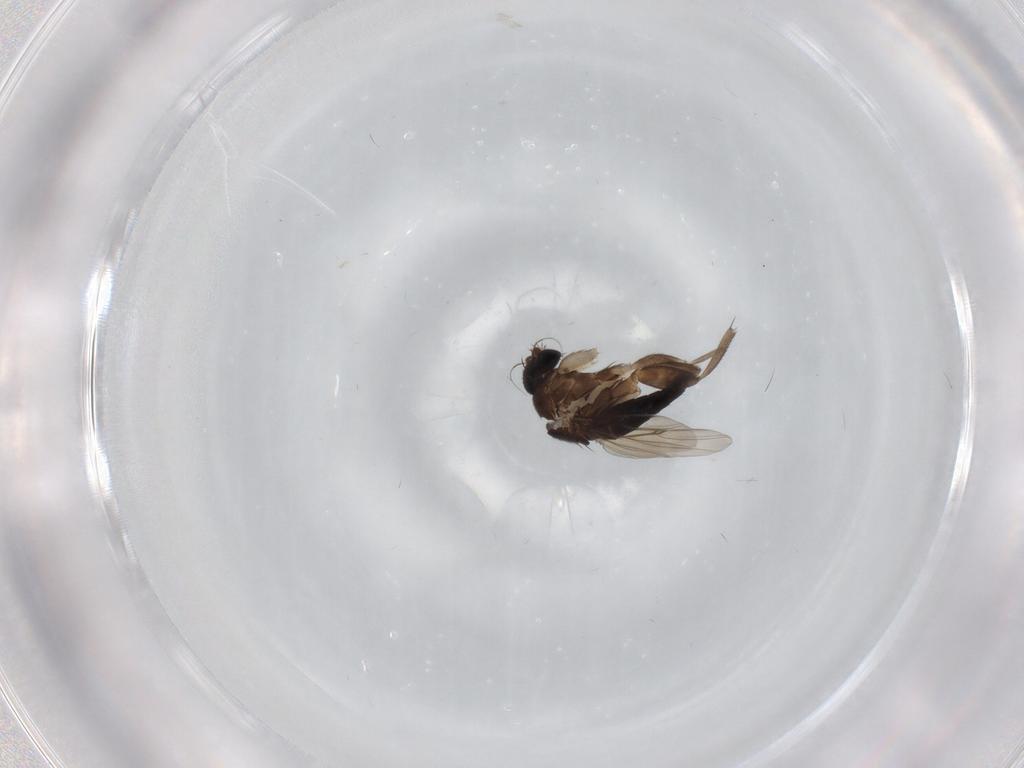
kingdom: Animalia
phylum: Arthropoda
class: Insecta
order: Diptera
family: Phoridae
